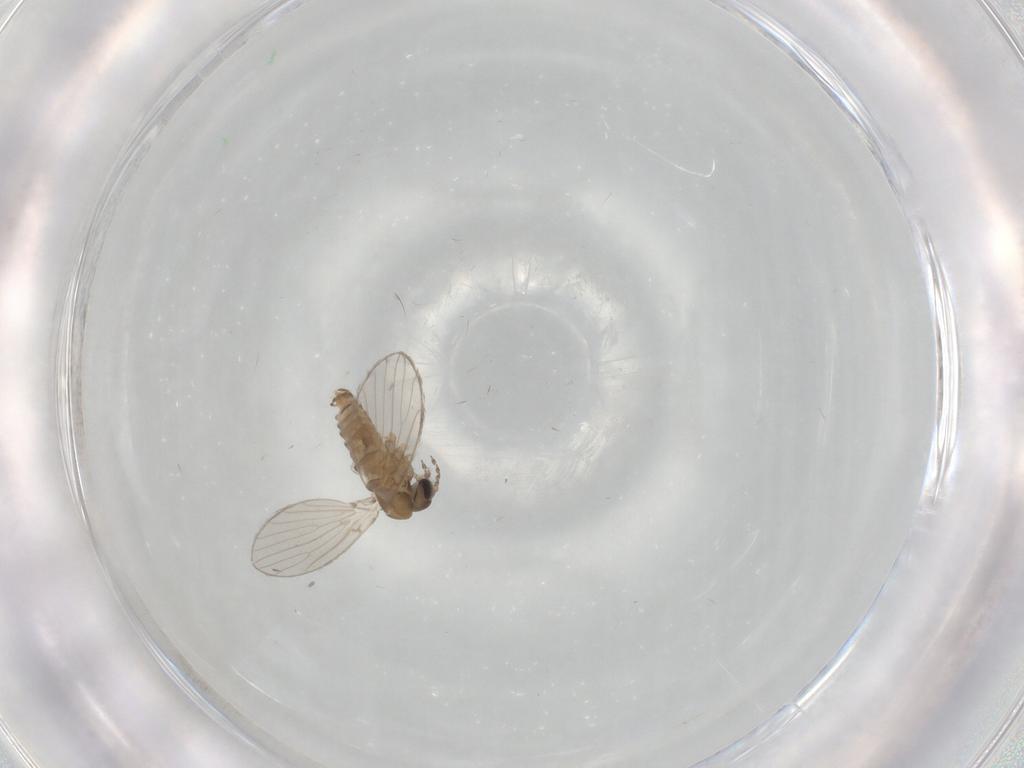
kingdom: Animalia
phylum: Arthropoda
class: Insecta
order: Diptera
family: Psychodidae
